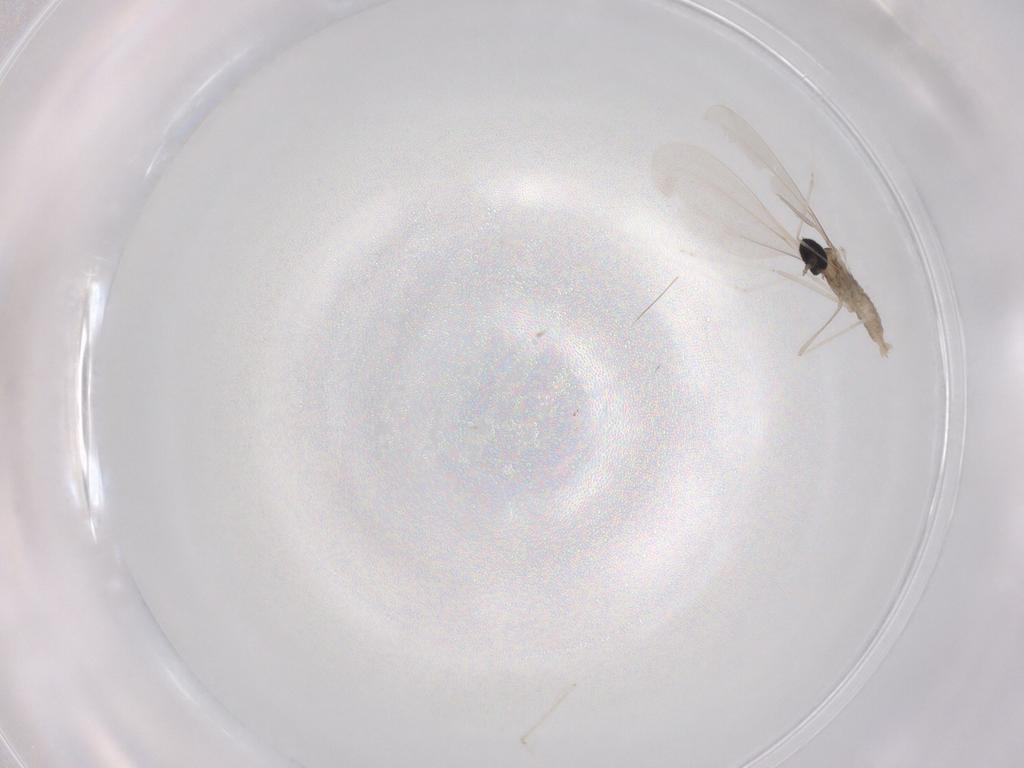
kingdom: Animalia
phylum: Arthropoda
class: Insecta
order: Diptera
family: Cecidomyiidae
